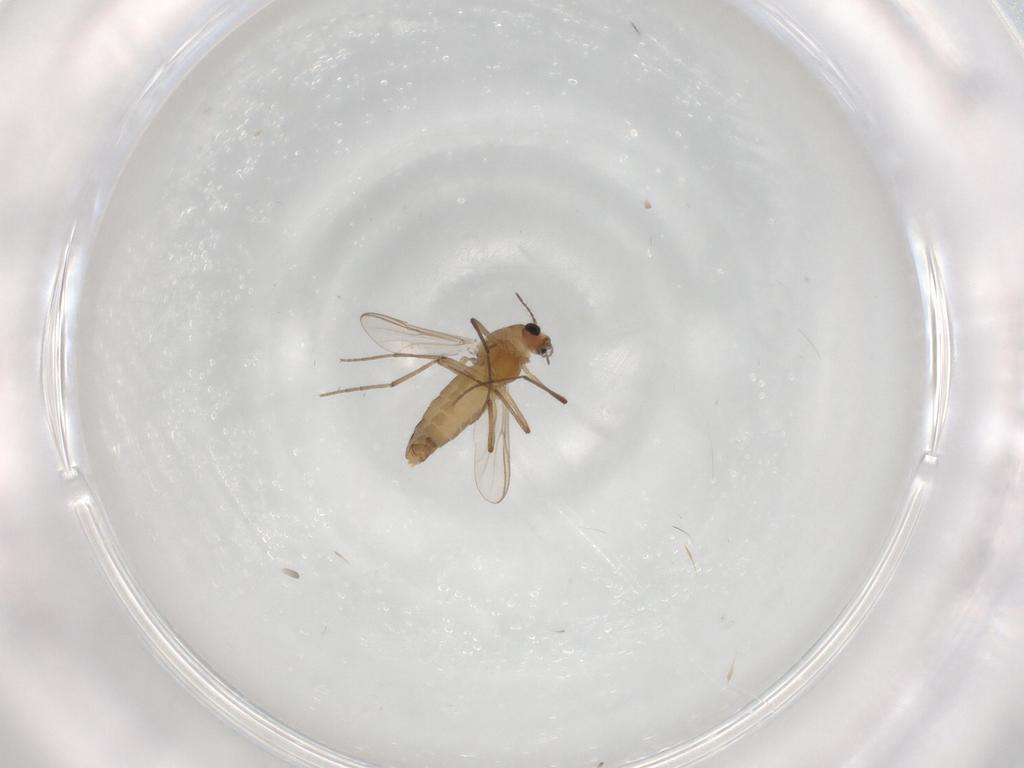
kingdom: Animalia
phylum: Arthropoda
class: Insecta
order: Diptera
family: Chironomidae
